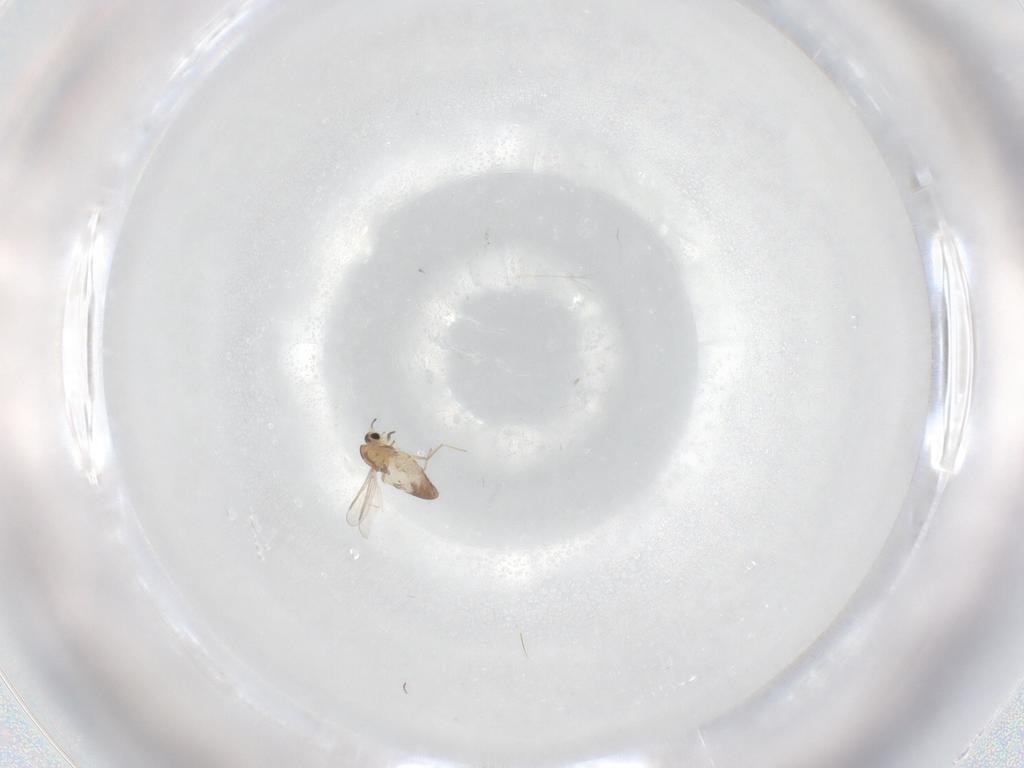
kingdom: Animalia
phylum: Arthropoda
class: Insecta
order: Diptera
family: Chironomidae
